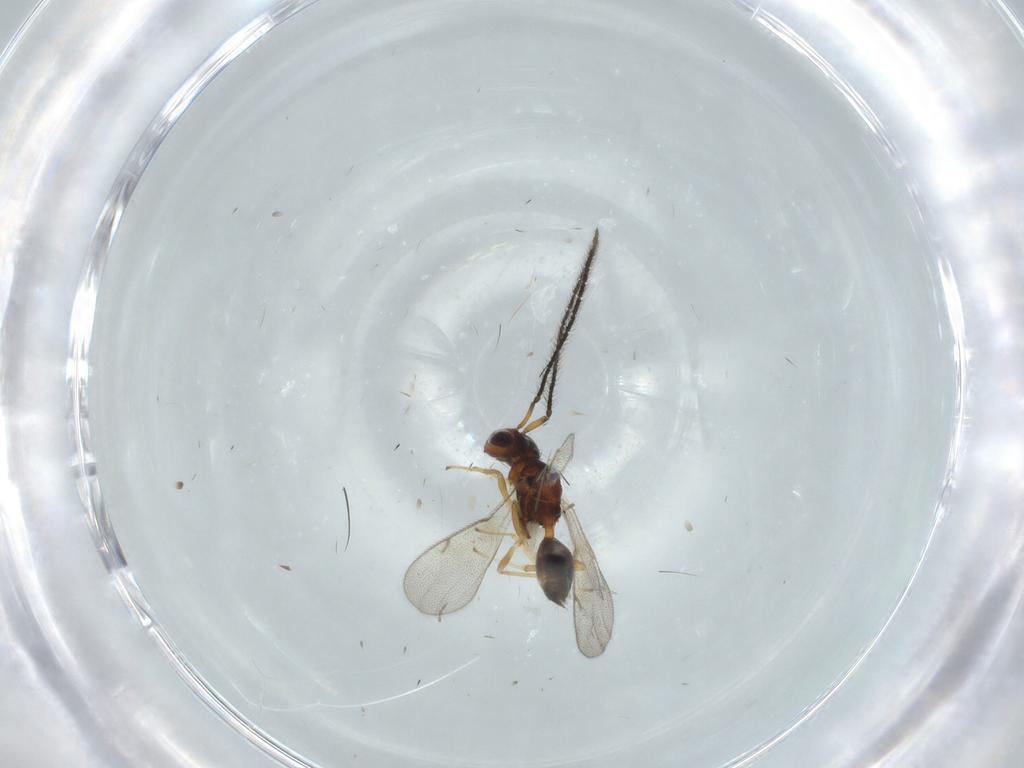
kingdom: Animalia
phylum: Arthropoda
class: Insecta
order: Hymenoptera
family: Diparidae
